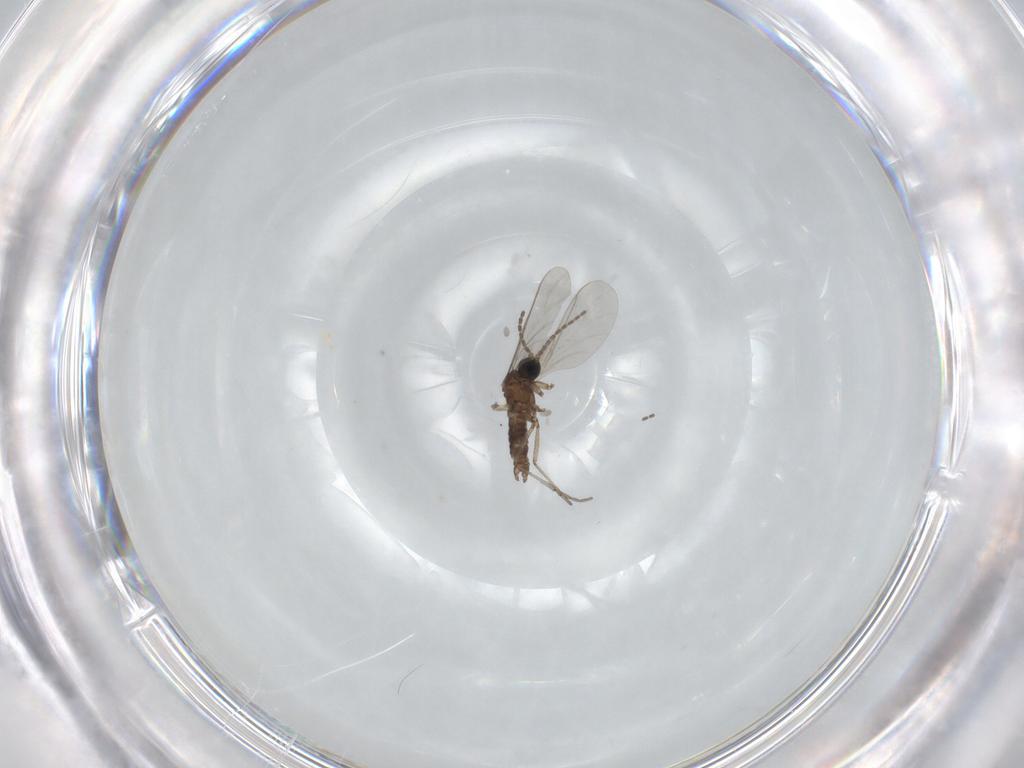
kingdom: Animalia
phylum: Arthropoda
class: Insecta
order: Diptera
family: Sciaridae
